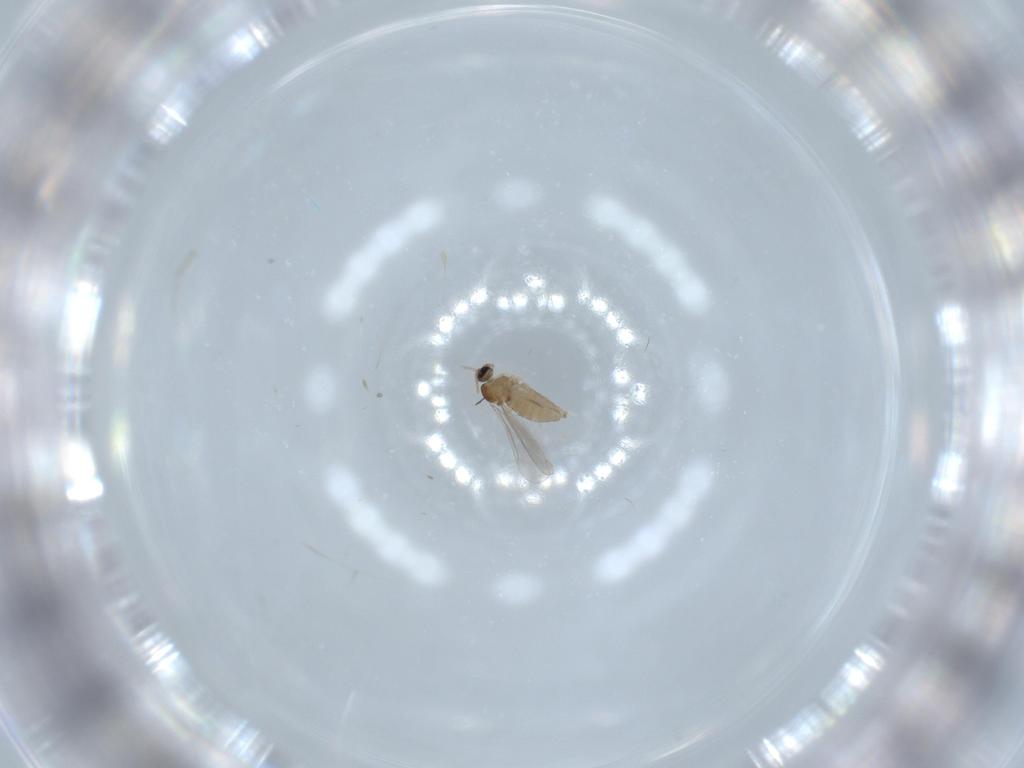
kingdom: Animalia
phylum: Arthropoda
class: Insecta
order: Diptera
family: Cecidomyiidae
